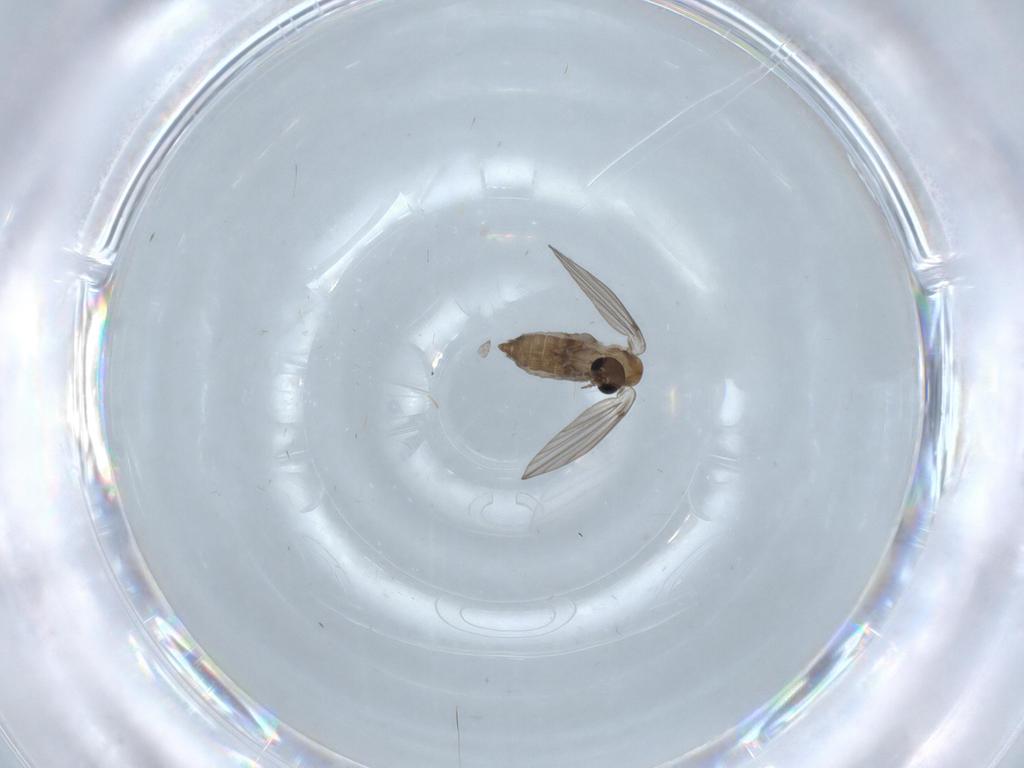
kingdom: Animalia
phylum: Arthropoda
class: Insecta
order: Diptera
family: Psychodidae
